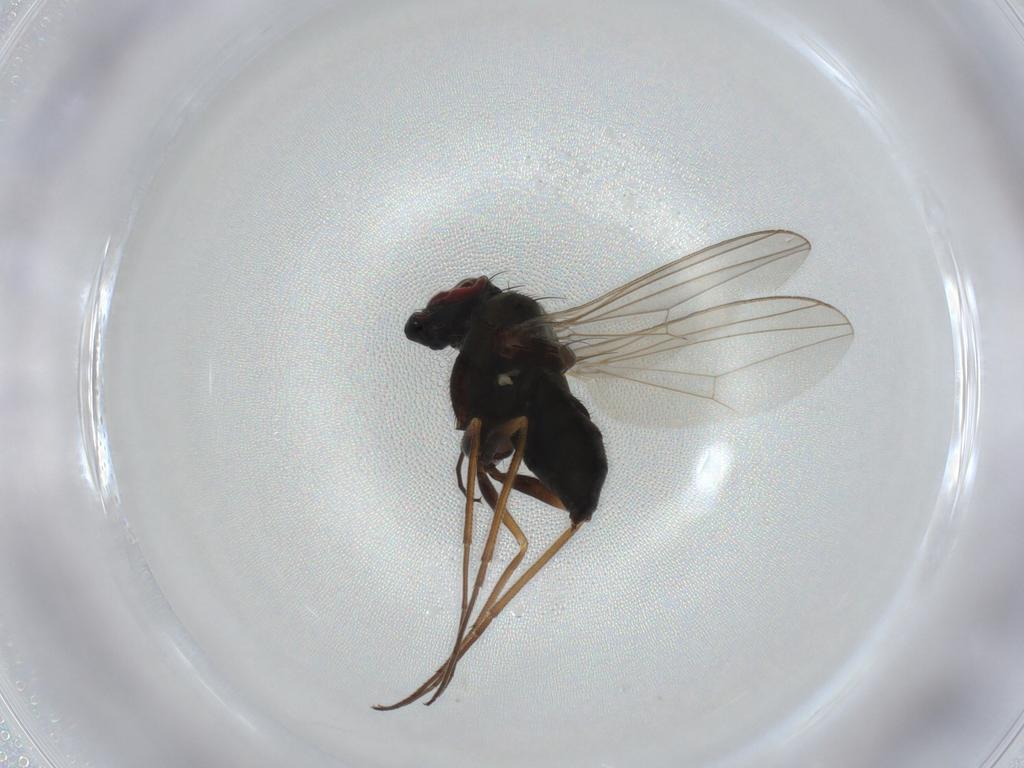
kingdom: Animalia
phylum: Arthropoda
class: Insecta
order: Diptera
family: Dolichopodidae
